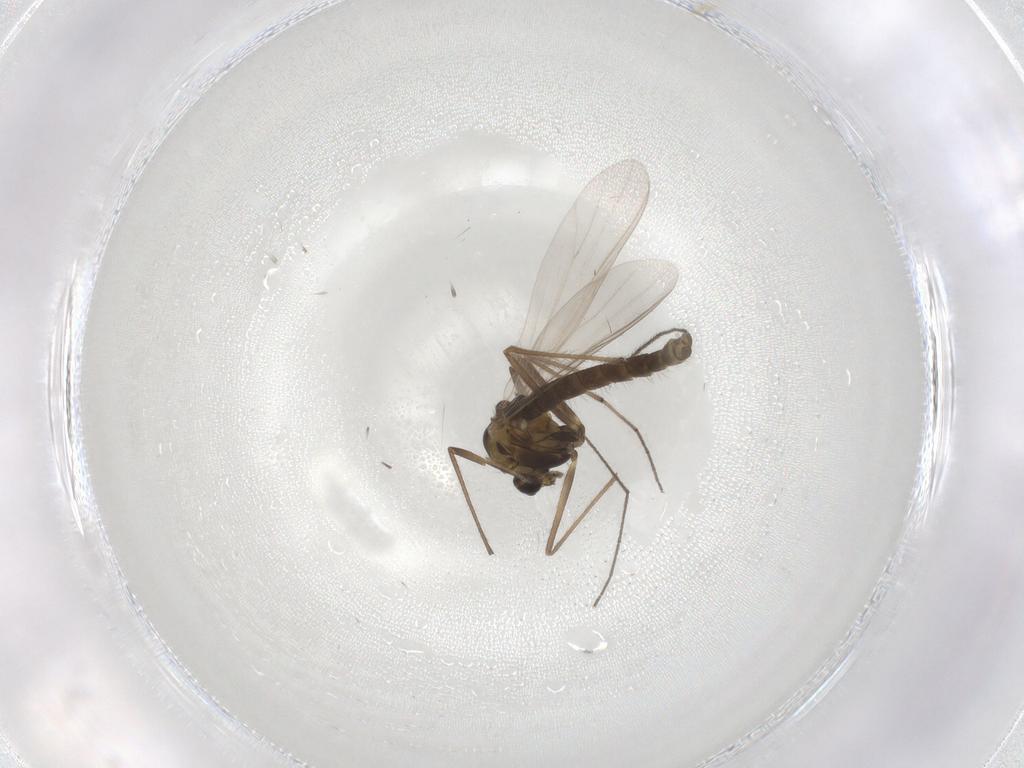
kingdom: Animalia
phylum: Arthropoda
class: Insecta
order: Diptera
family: Chironomidae
